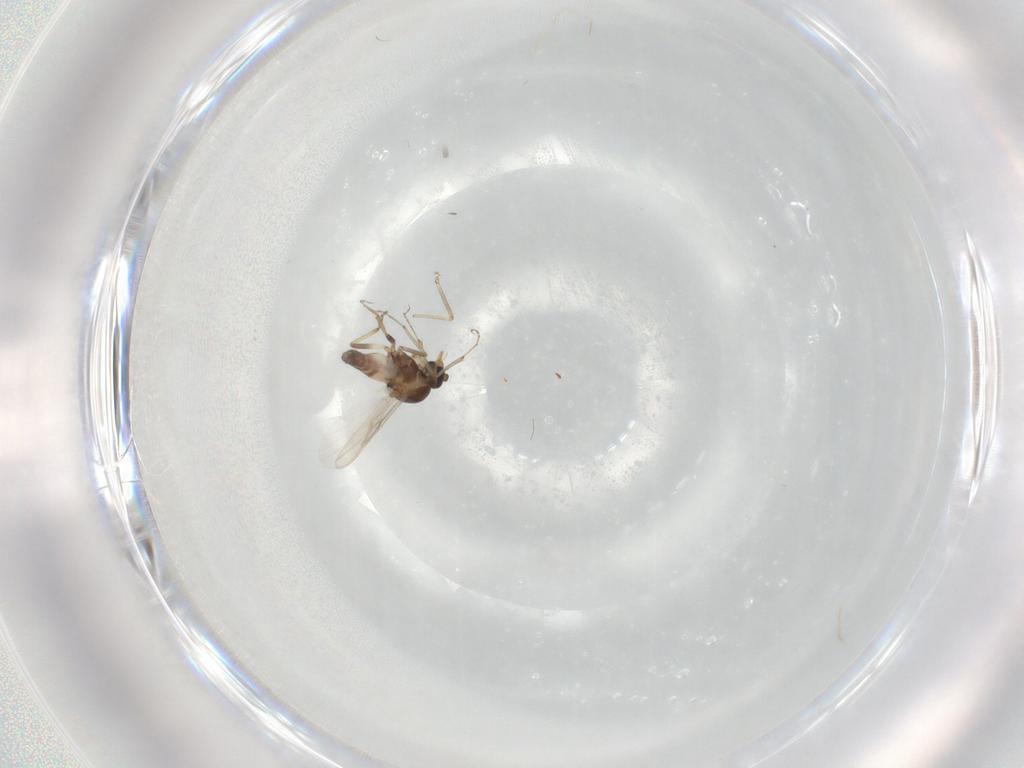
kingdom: Animalia
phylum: Arthropoda
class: Insecta
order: Diptera
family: Ceratopogonidae
